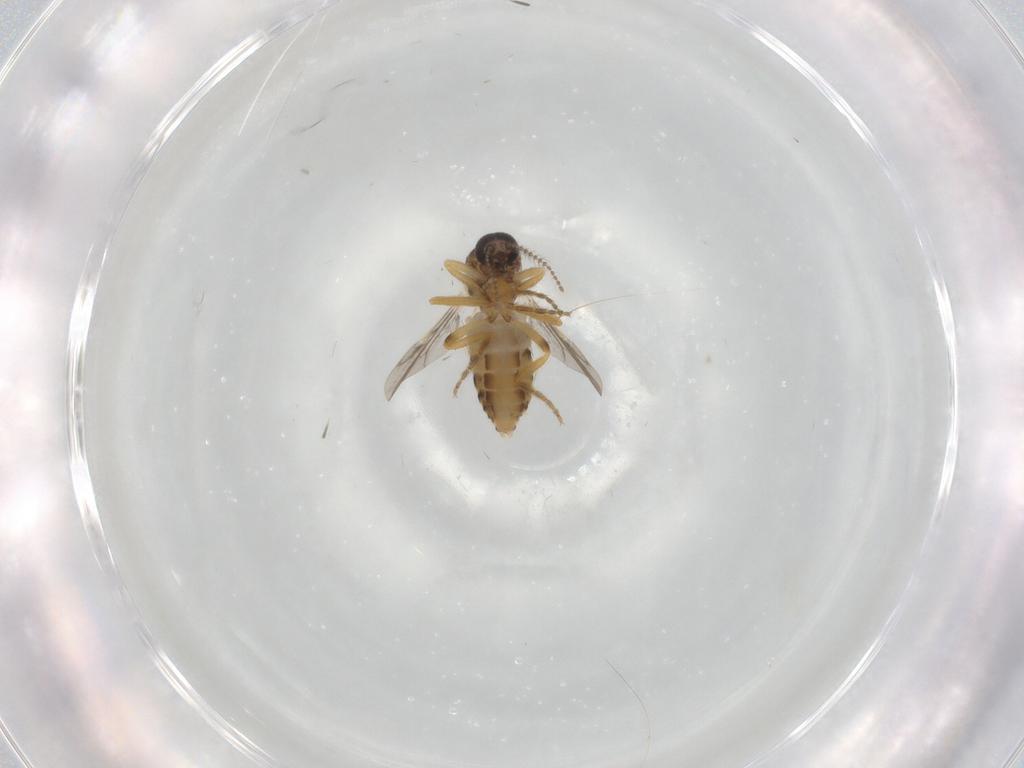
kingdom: Animalia
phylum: Arthropoda
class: Insecta
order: Diptera
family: Ceratopogonidae
